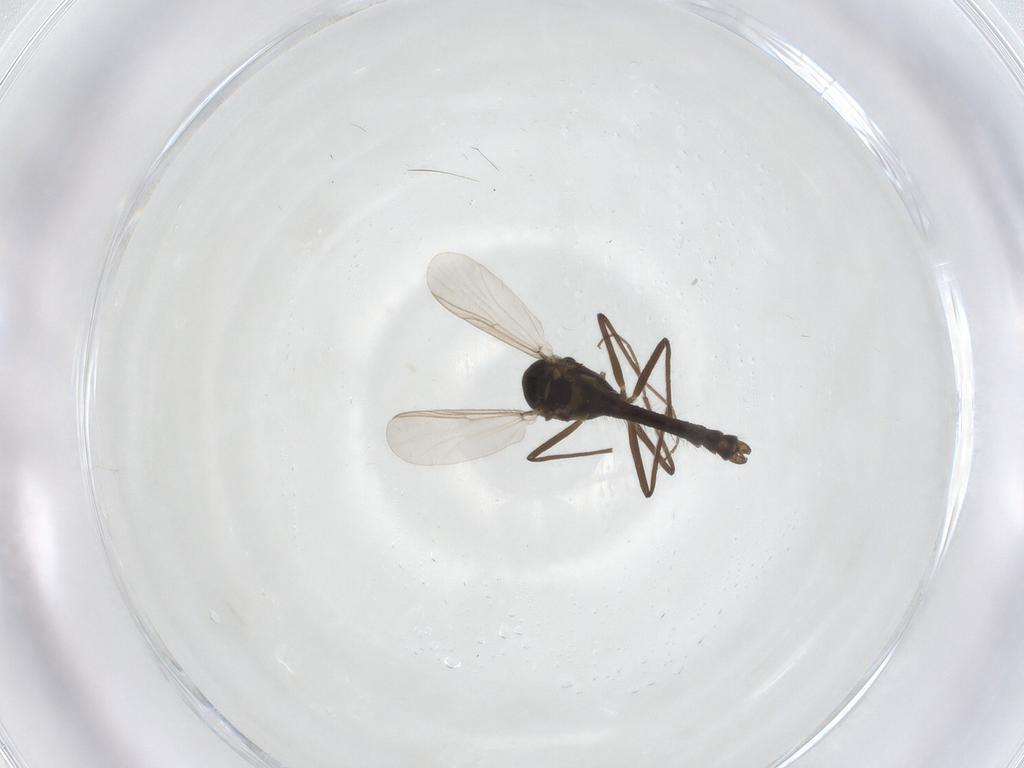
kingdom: Animalia
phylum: Arthropoda
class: Insecta
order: Diptera
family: Chironomidae
